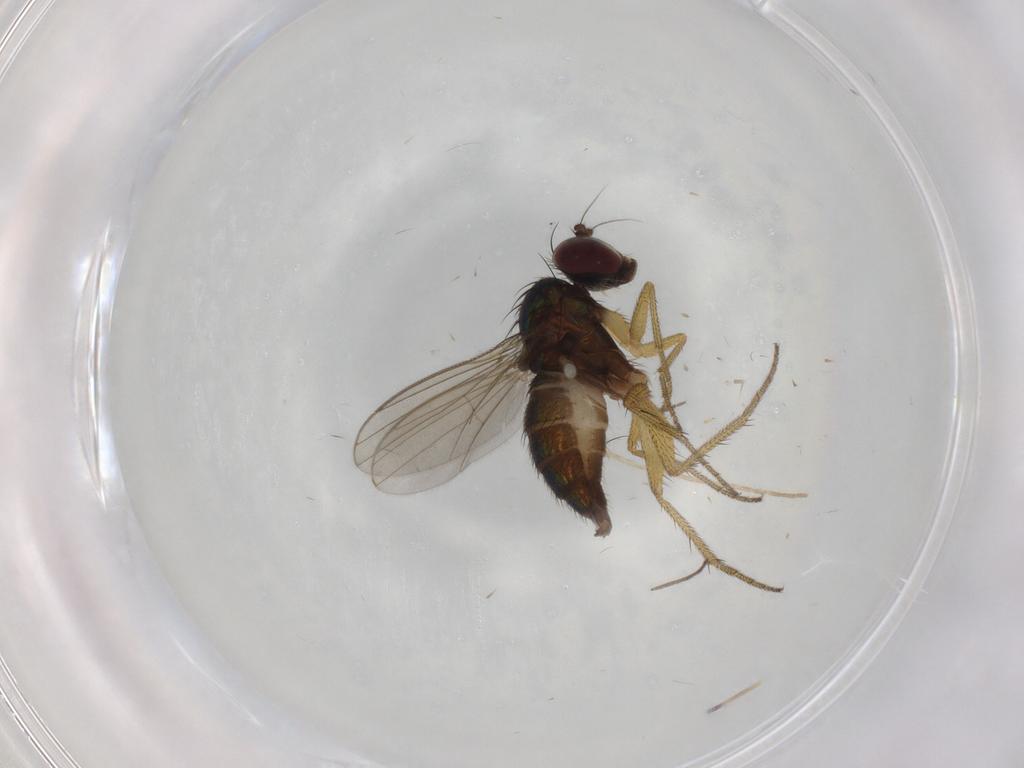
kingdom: Animalia
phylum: Arthropoda
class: Insecta
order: Diptera
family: Dolichopodidae
